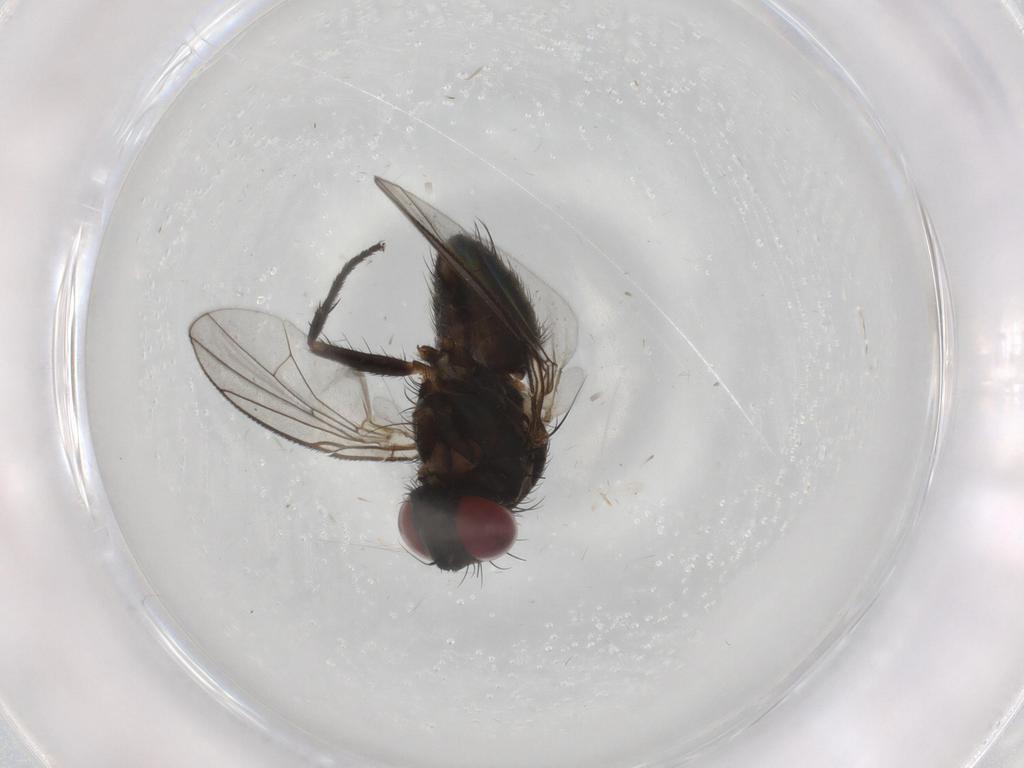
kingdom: Animalia
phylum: Arthropoda
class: Insecta
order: Diptera
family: Muscidae
